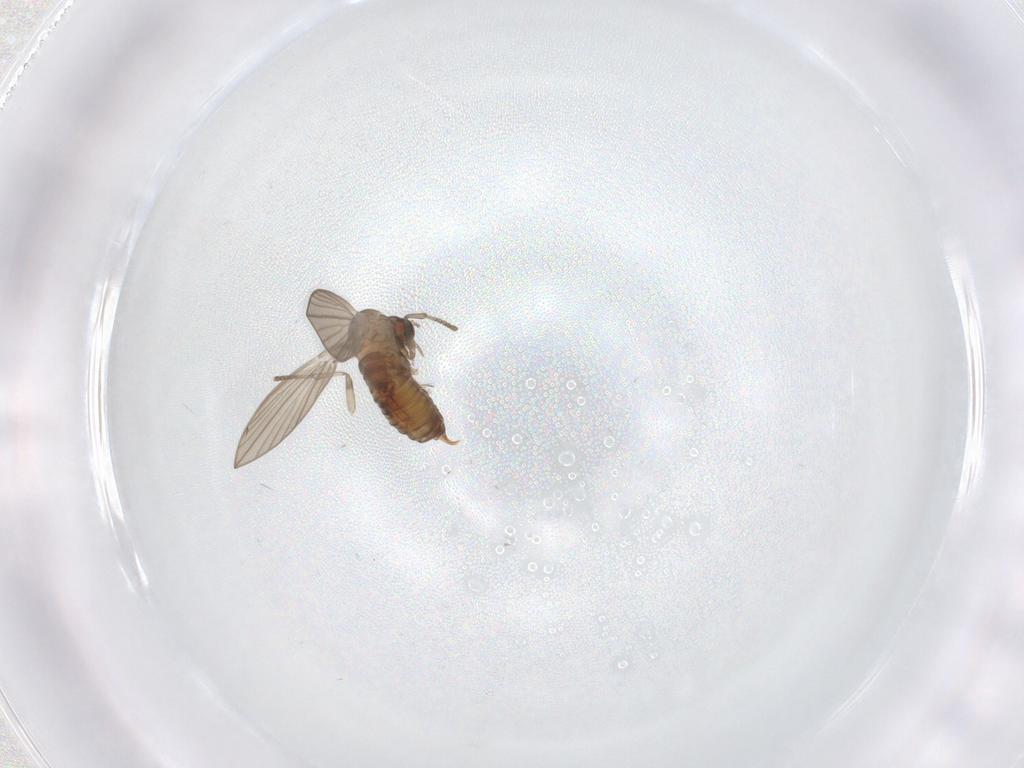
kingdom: Animalia
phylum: Arthropoda
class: Insecta
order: Diptera
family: Psychodidae
